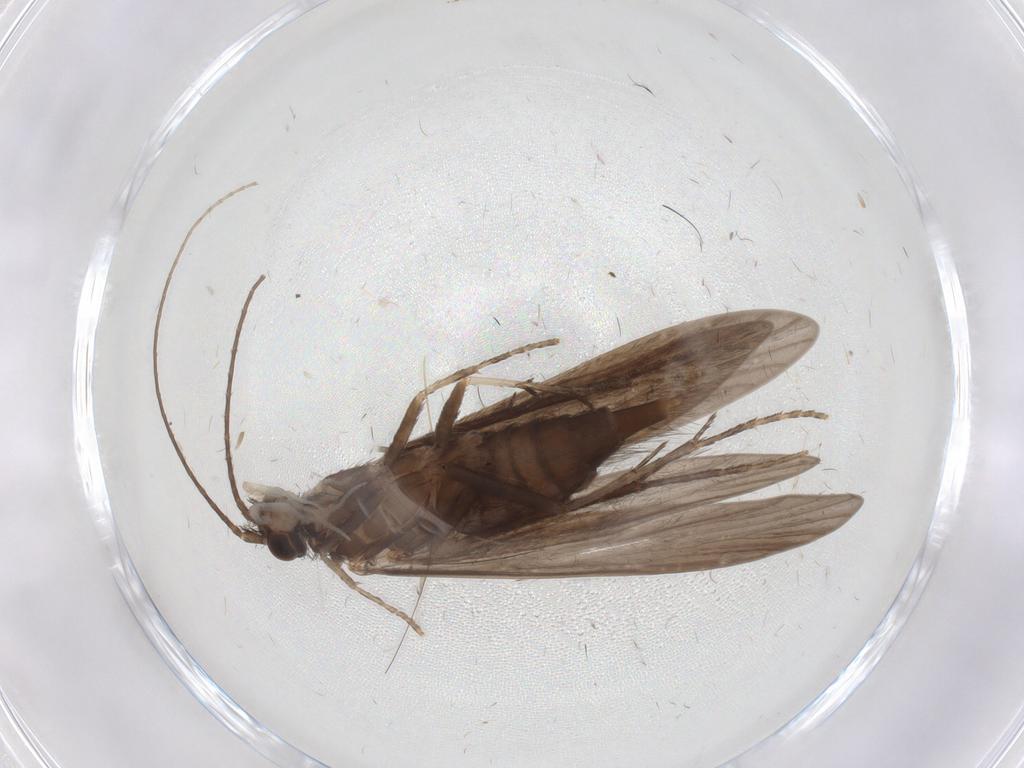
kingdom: Animalia
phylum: Arthropoda
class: Insecta
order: Trichoptera
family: Xiphocentronidae
